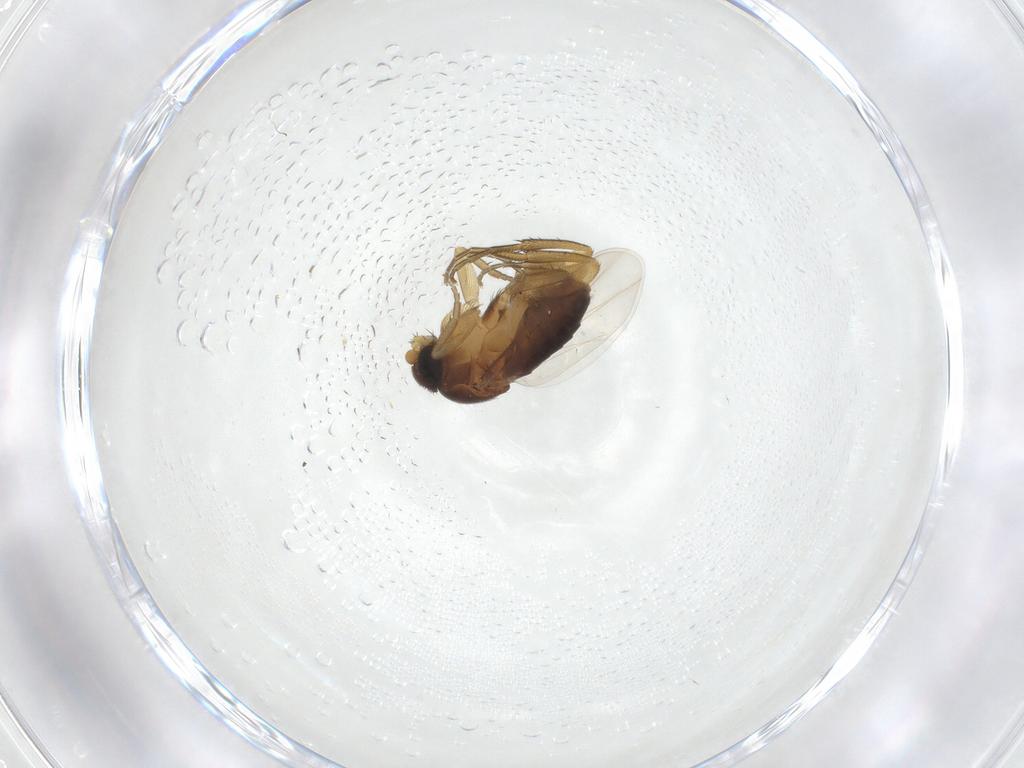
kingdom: Animalia
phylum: Arthropoda
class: Insecta
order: Diptera
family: Phoridae
